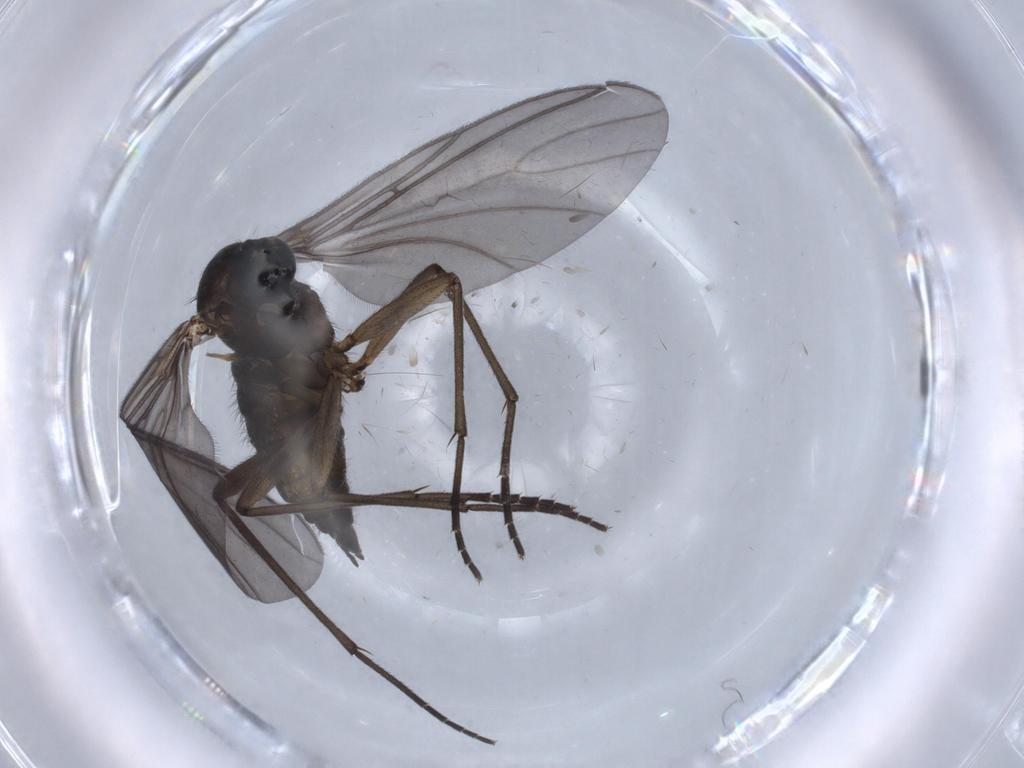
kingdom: Animalia
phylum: Arthropoda
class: Insecta
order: Diptera
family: Sciaridae
